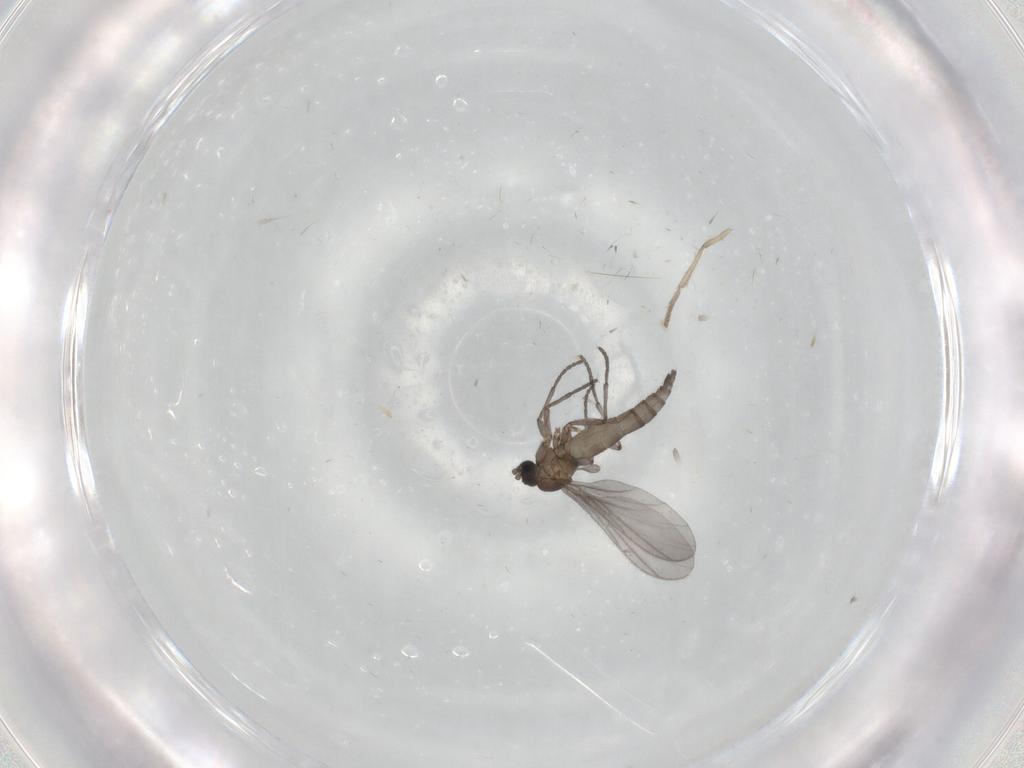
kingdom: Animalia
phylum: Arthropoda
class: Insecta
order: Diptera
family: Sciaridae
